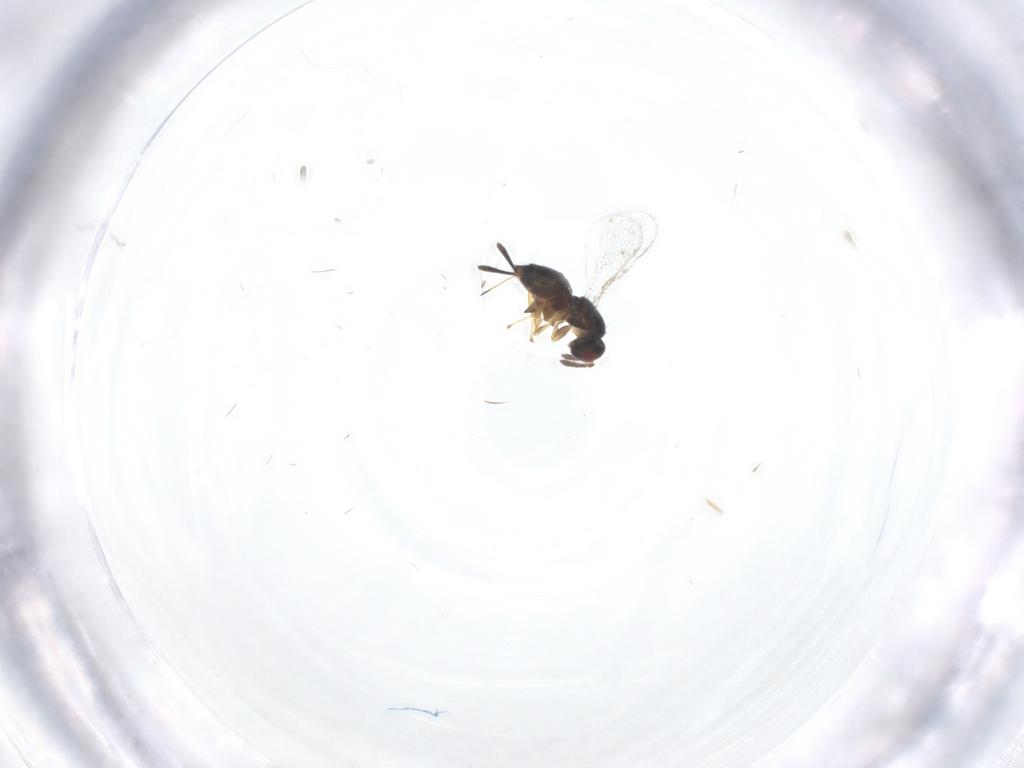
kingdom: Animalia
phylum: Arthropoda
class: Insecta
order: Hymenoptera
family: Torymidae
